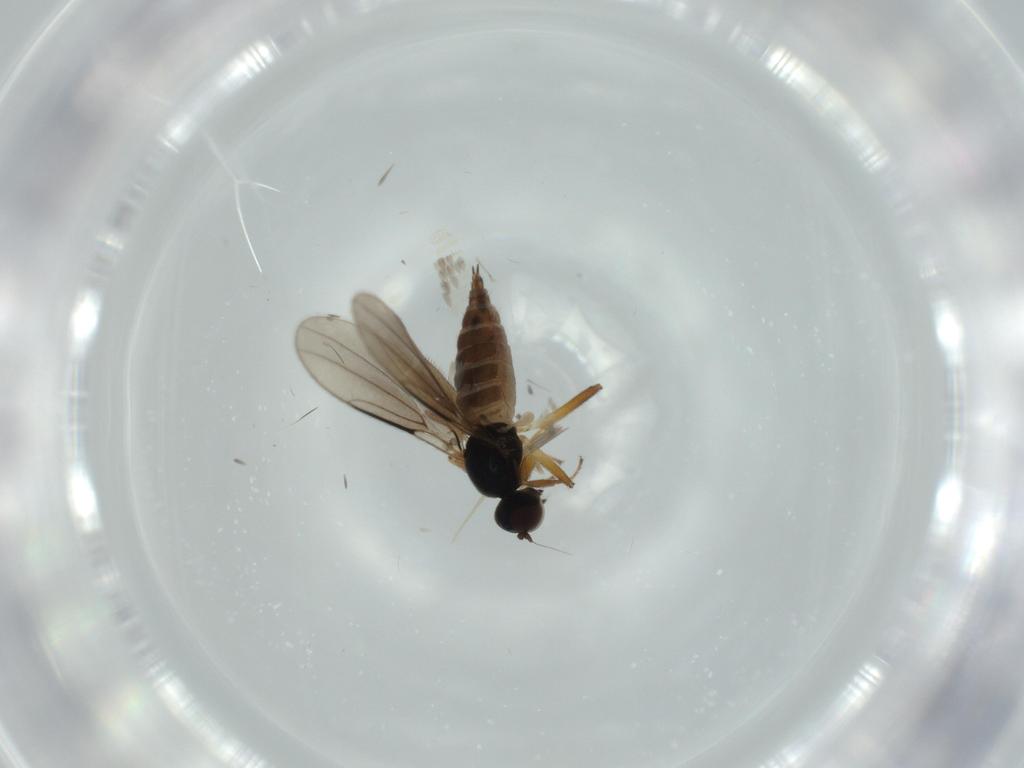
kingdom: Animalia
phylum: Arthropoda
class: Insecta
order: Diptera
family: Hybotidae
